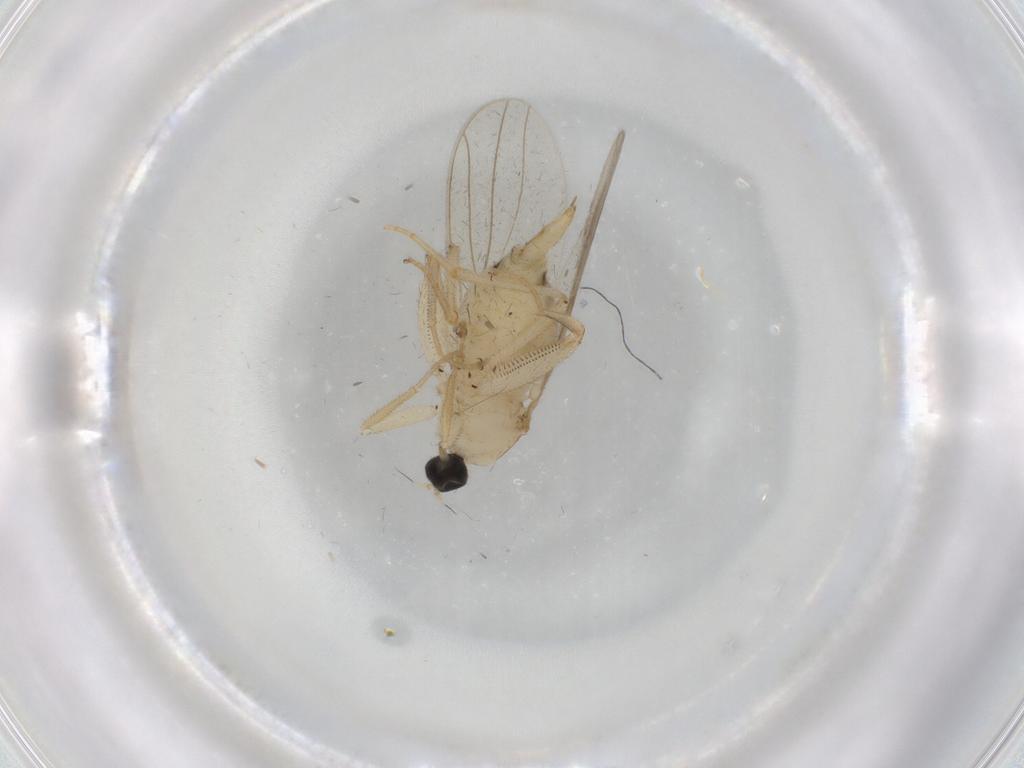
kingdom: Animalia
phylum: Arthropoda
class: Insecta
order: Diptera
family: Hybotidae
